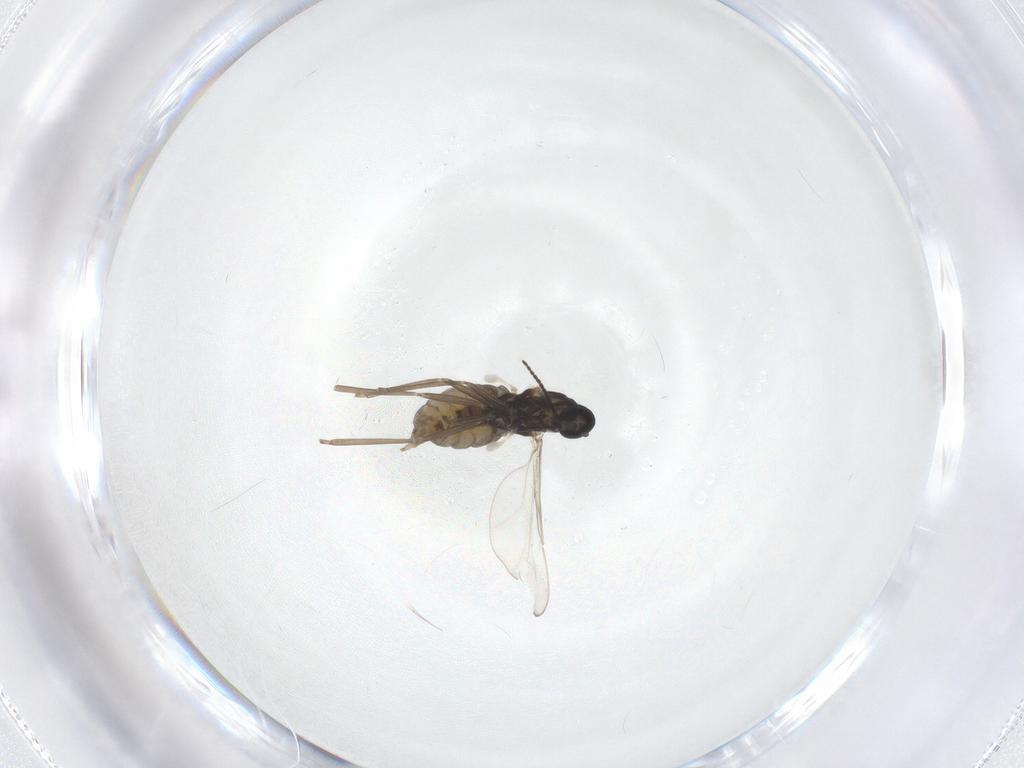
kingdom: Animalia
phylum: Arthropoda
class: Insecta
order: Diptera
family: Cecidomyiidae
